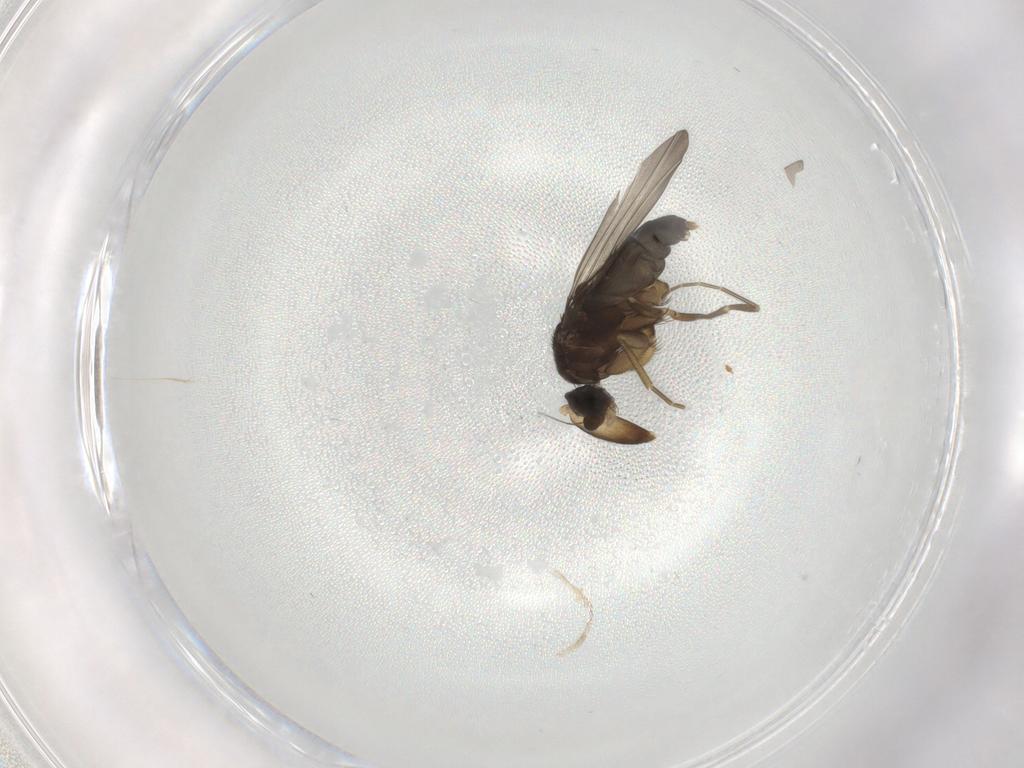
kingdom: Animalia
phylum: Arthropoda
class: Insecta
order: Diptera
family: Phoridae
